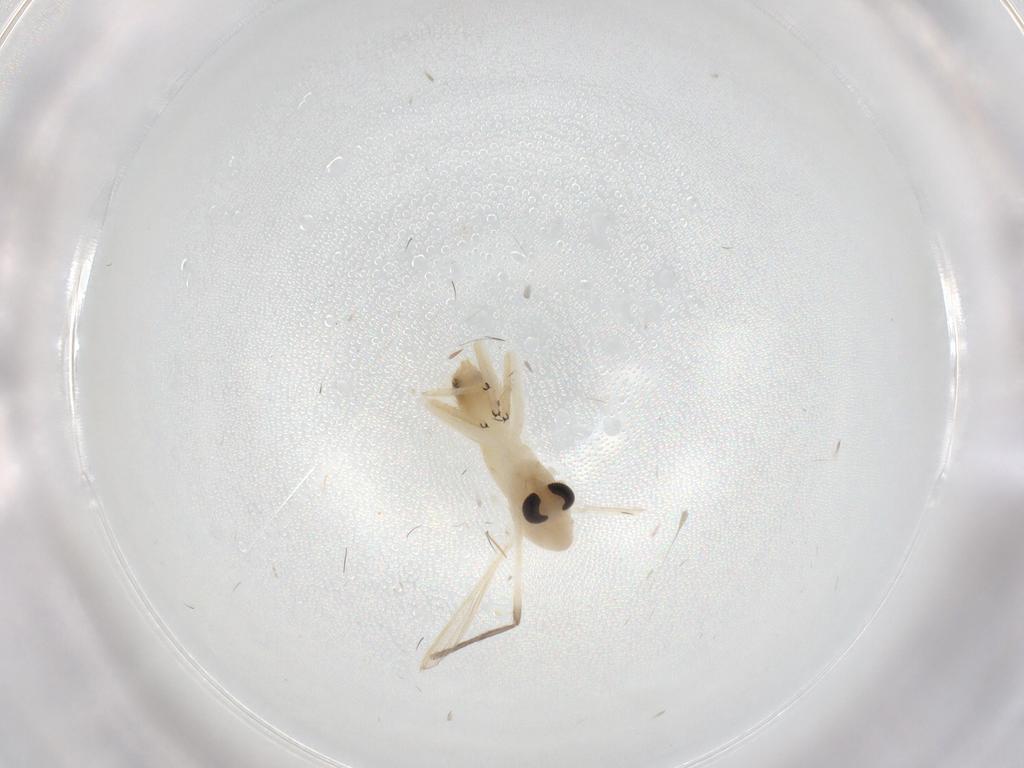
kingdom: Animalia
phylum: Arthropoda
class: Insecta
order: Diptera
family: Chironomidae
